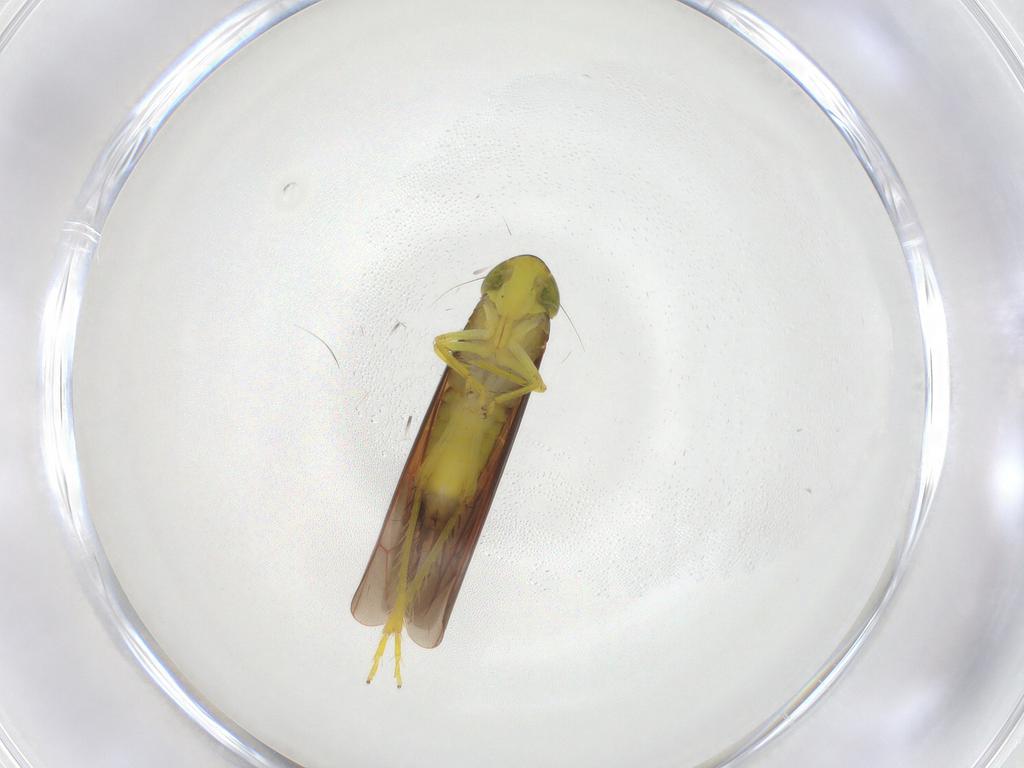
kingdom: Animalia
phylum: Arthropoda
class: Insecta
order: Hemiptera
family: Cicadellidae
